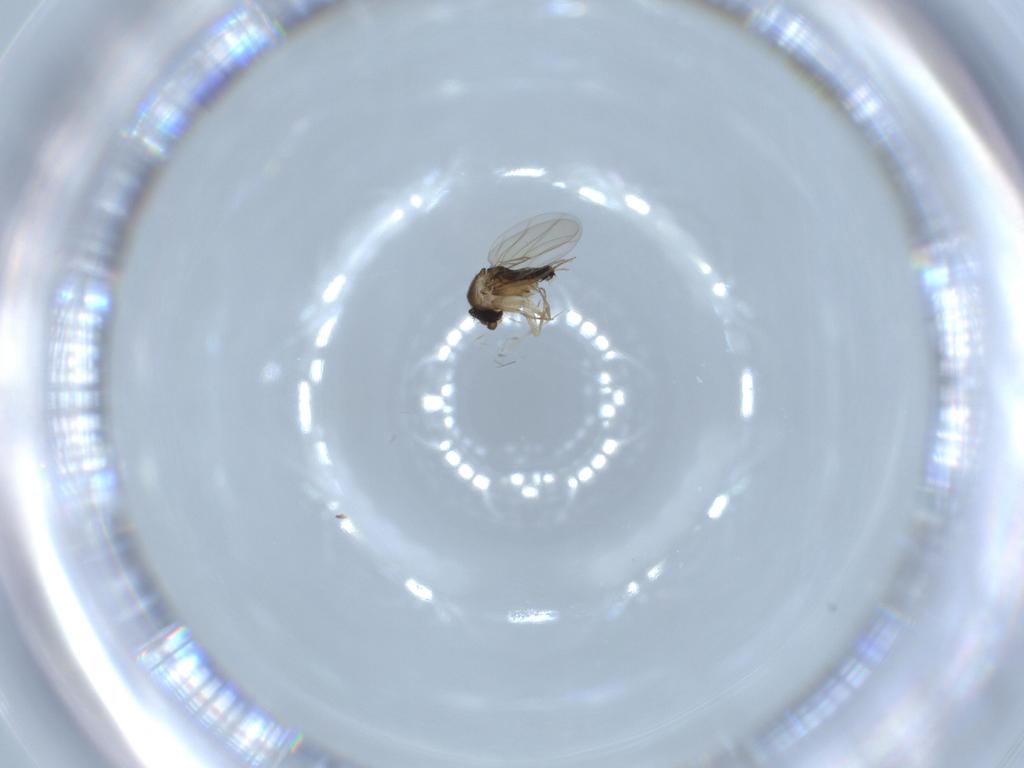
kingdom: Animalia
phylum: Arthropoda
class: Insecta
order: Diptera
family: Phoridae
